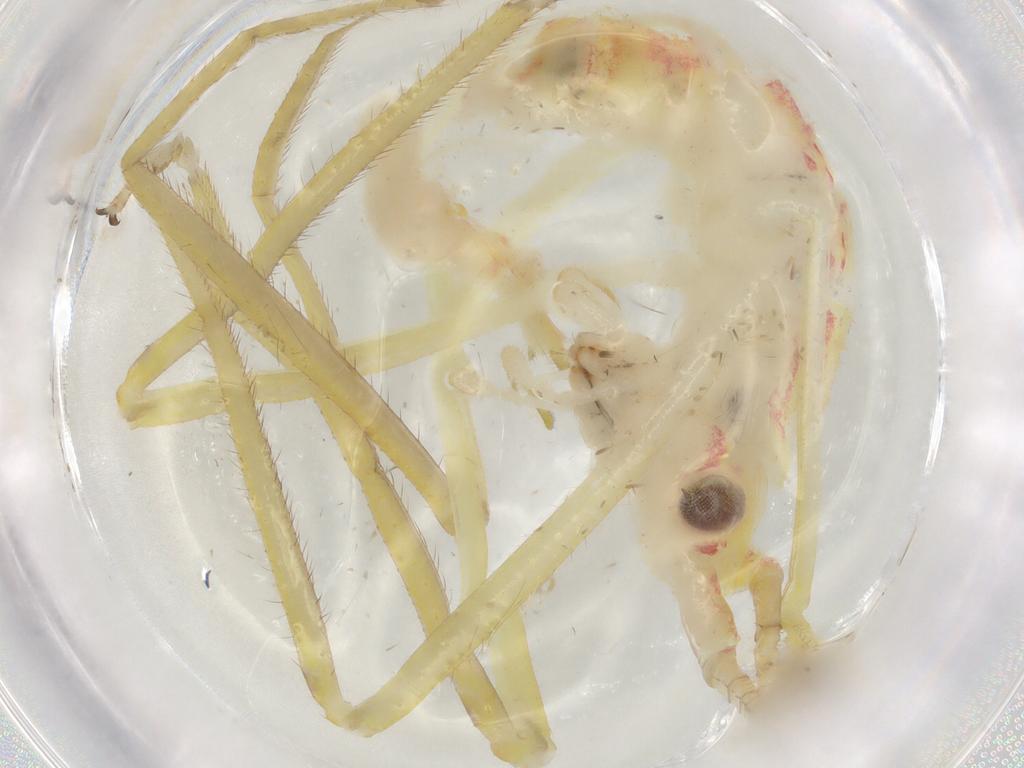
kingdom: Animalia
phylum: Arthropoda
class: Insecta
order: Orthoptera
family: Tettigoniidae
